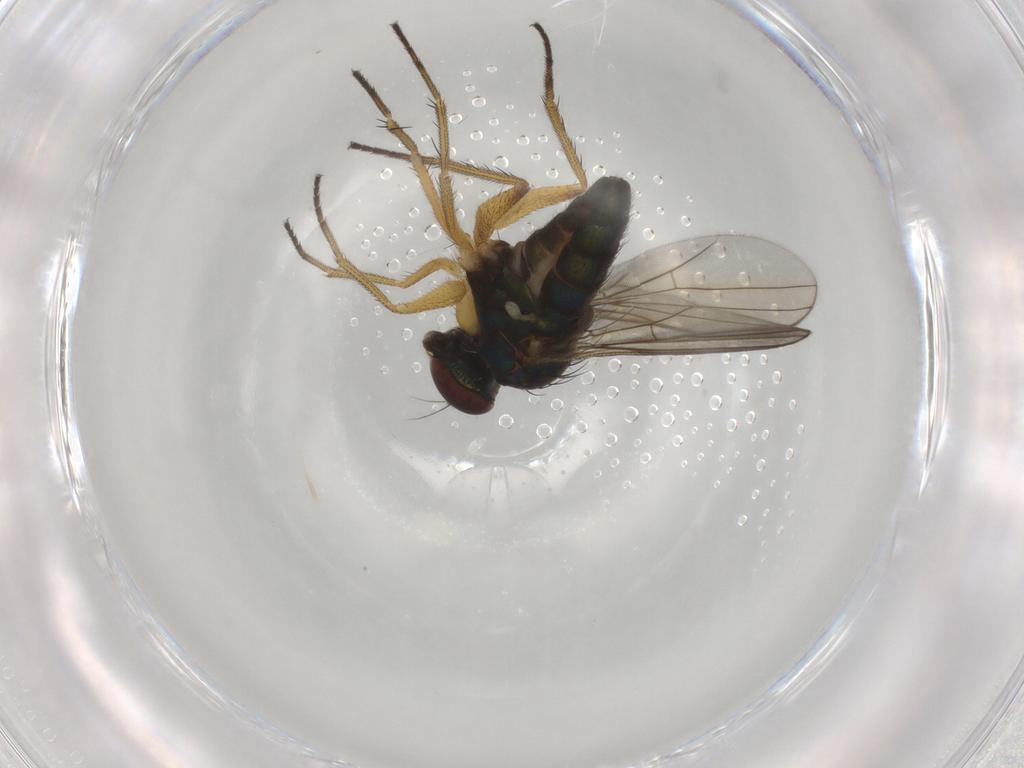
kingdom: Animalia
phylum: Arthropoda
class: Insecta
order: Diptera
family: Dolichopodidae
